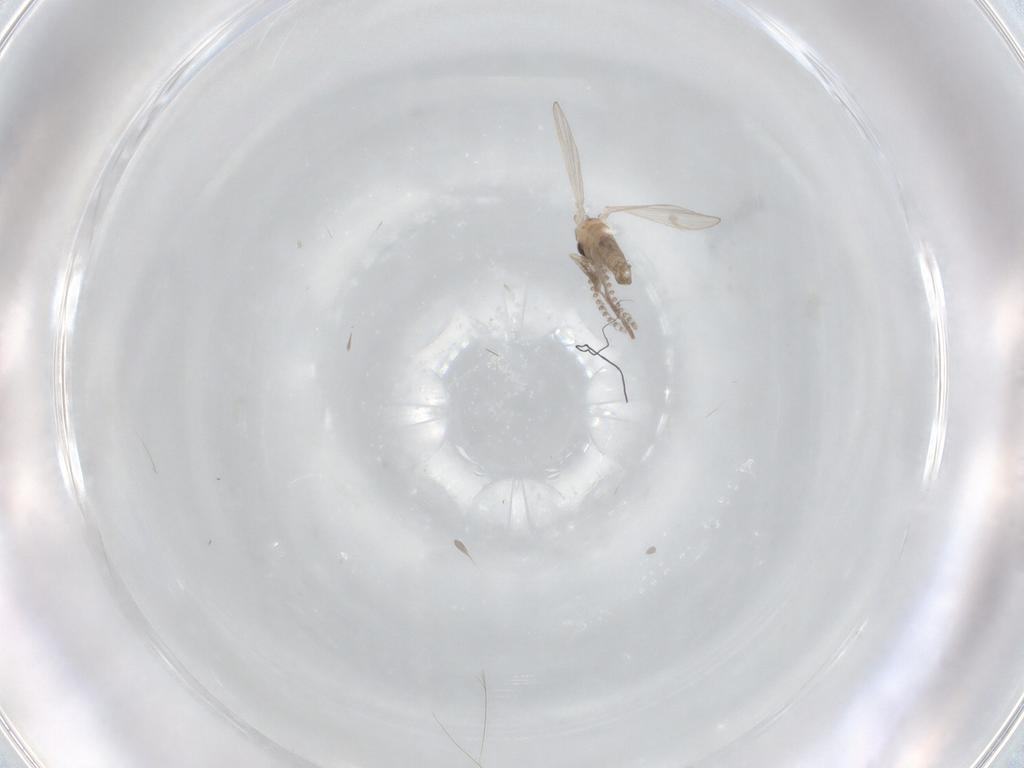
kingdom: Animalia
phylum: Arthropoda
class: Insecta
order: Diptera
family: Psychodidae
